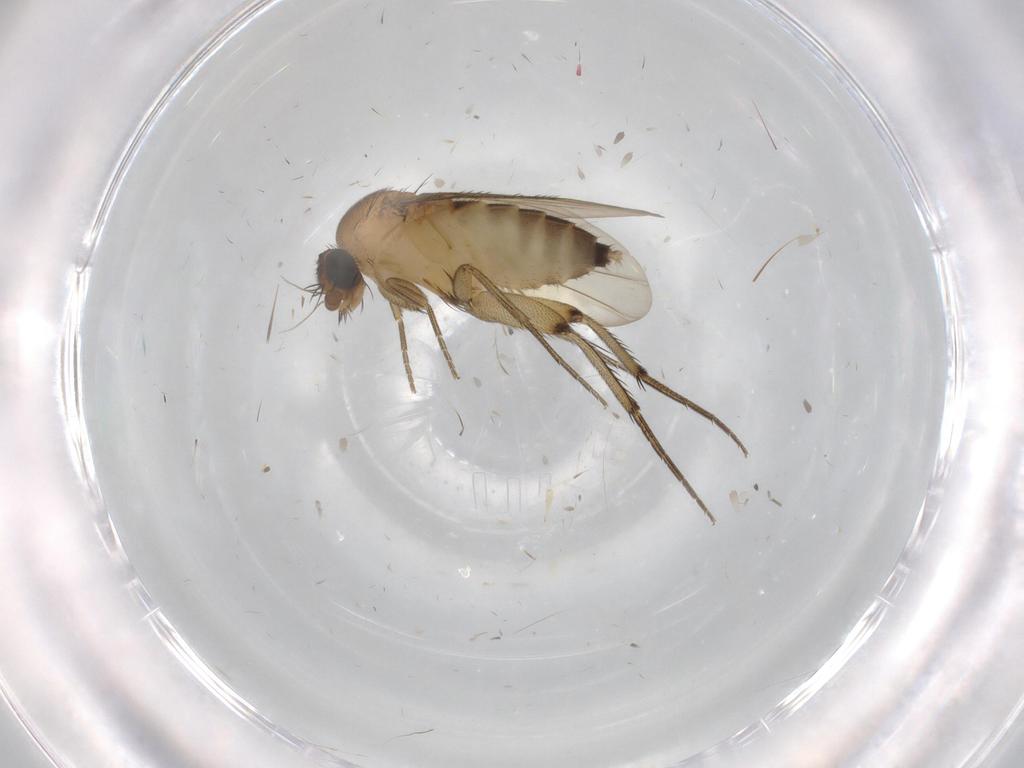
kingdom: Animalia
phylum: Arthropoda
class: Insecta
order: Diptera
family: Phoridae
